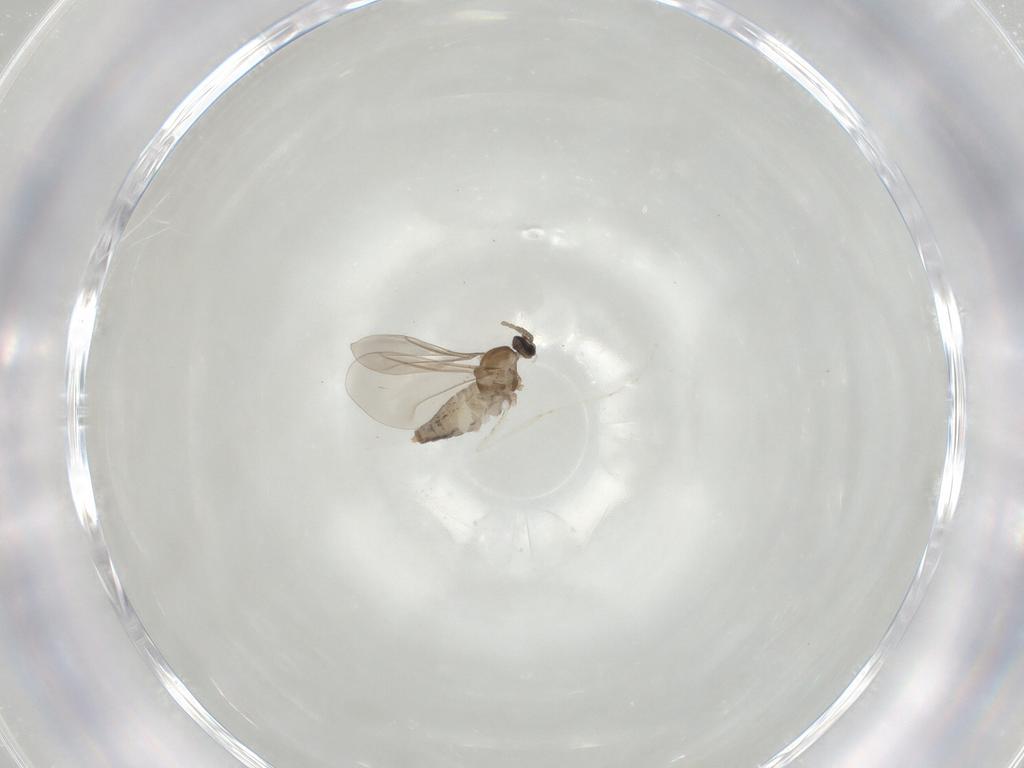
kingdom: Animalia
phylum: Arthropoda
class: Insecta
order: Diptera
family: Cecidomyiidae
